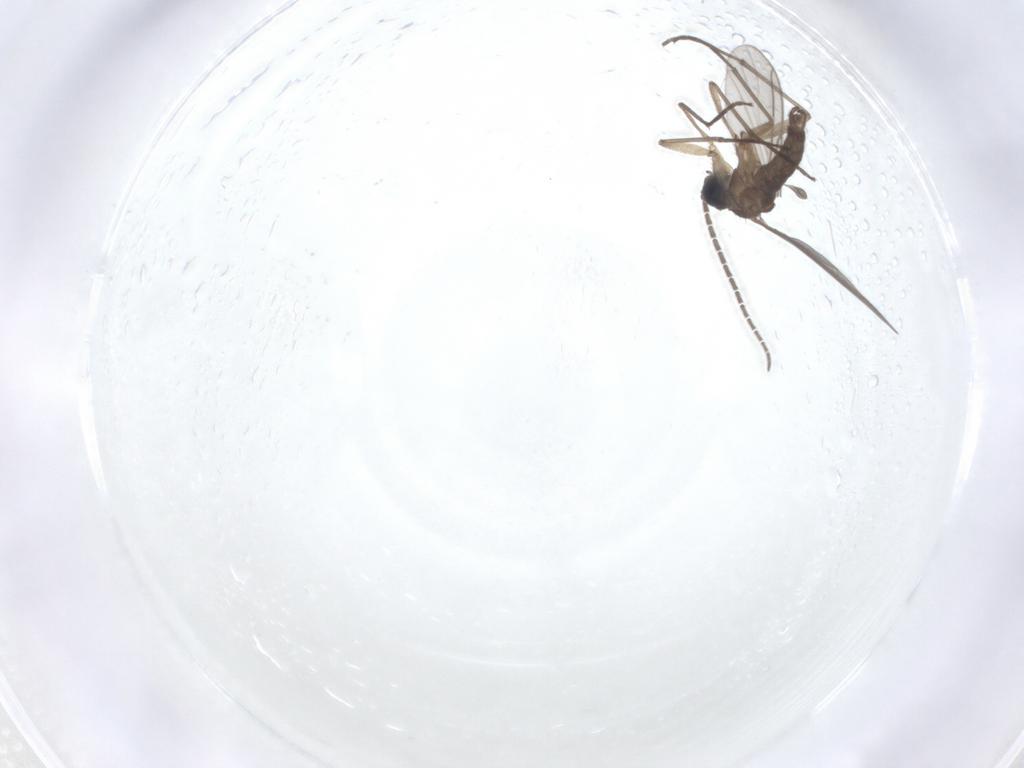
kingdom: Animalia
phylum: Arthropoda
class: Insecta
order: Diptera
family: Sciaridae
